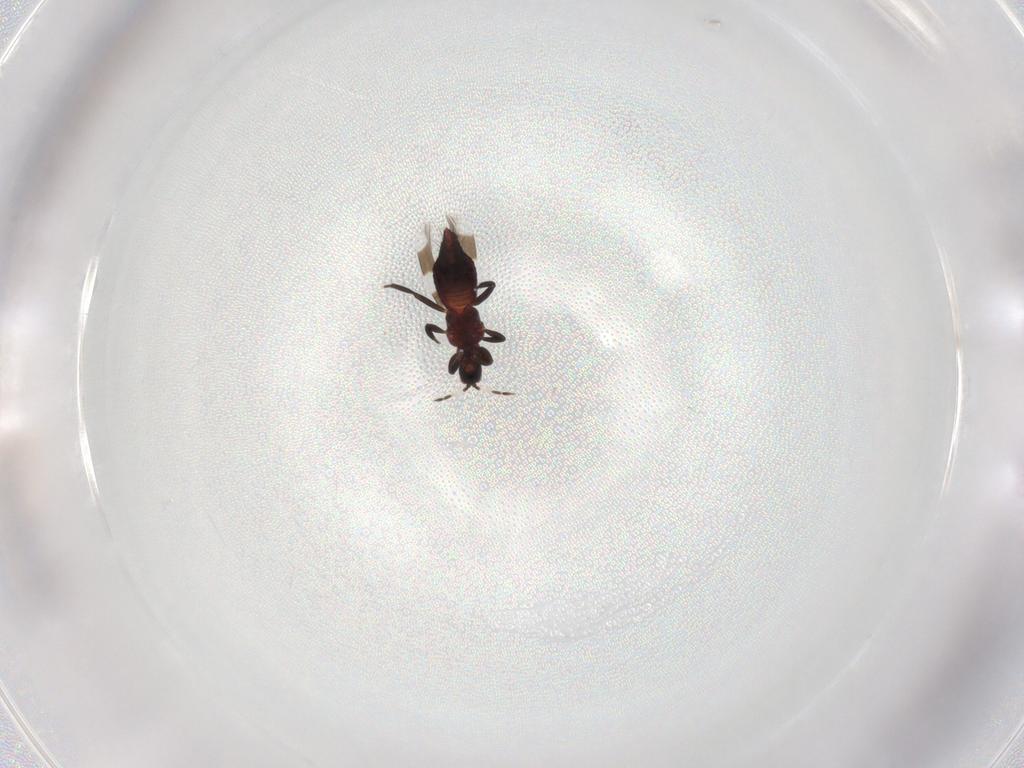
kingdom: Animalia
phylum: Arthropoda
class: Insecta
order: Thysanoptera
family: Aeolothripidae
